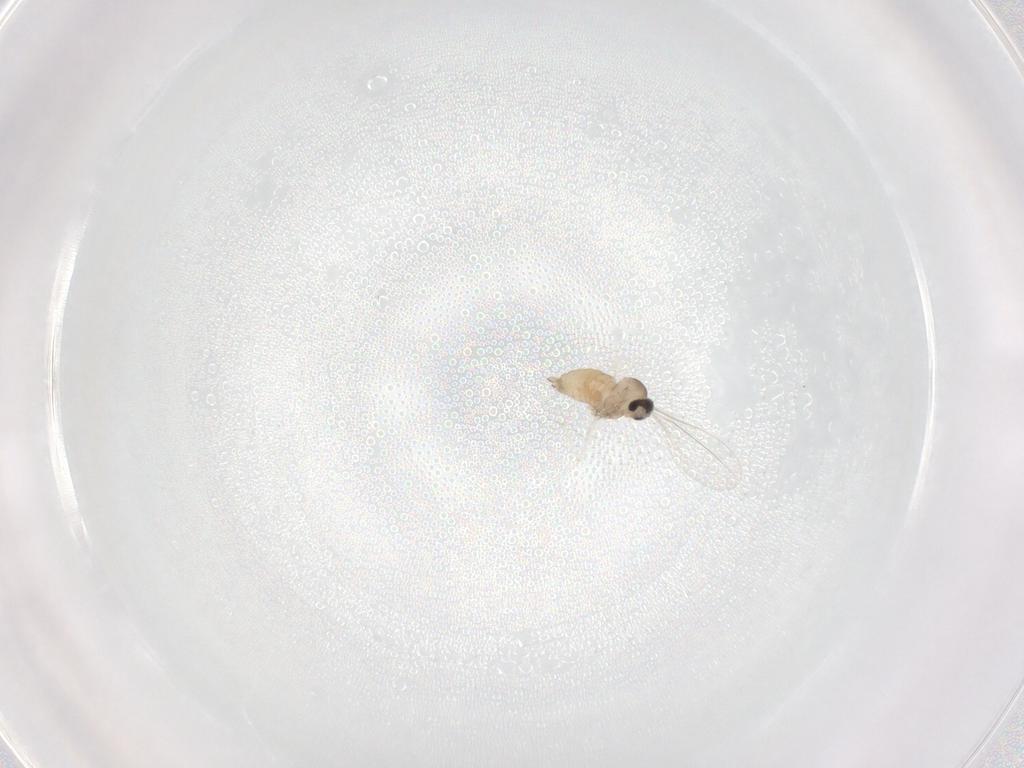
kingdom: Animalia
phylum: Arthropoda
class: Insecta
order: Diptera
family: Cecidomyiidae
